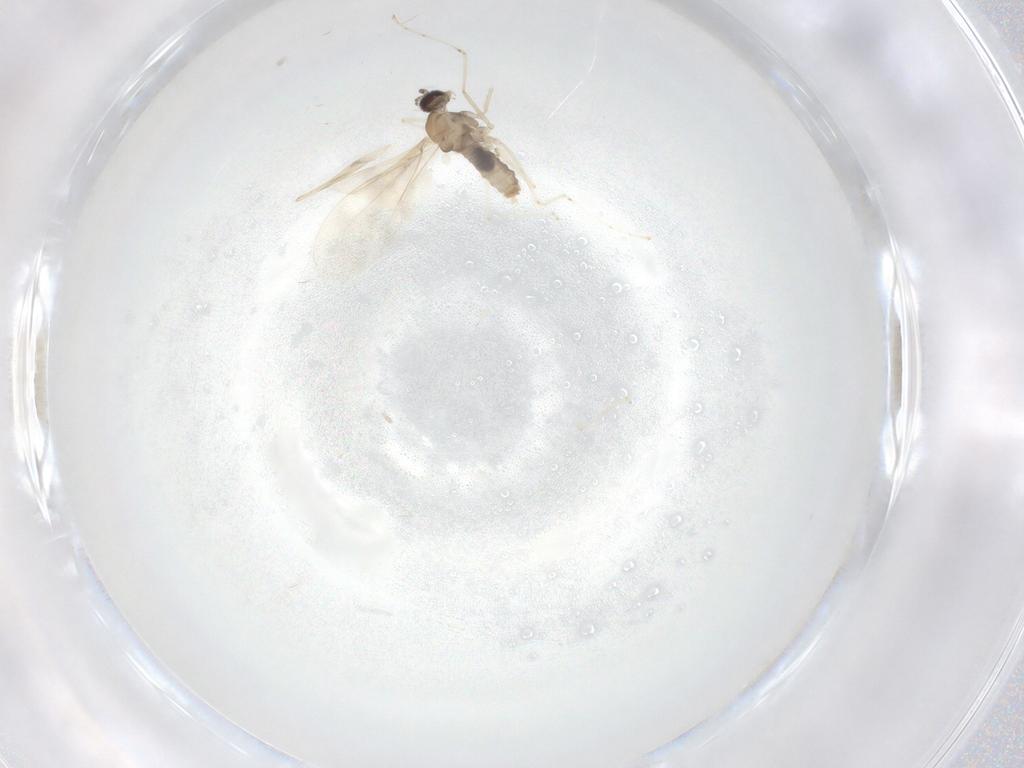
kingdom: Animalia
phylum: Arthropoda
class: Insecta
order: Diptera
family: Cecidomyiidae
